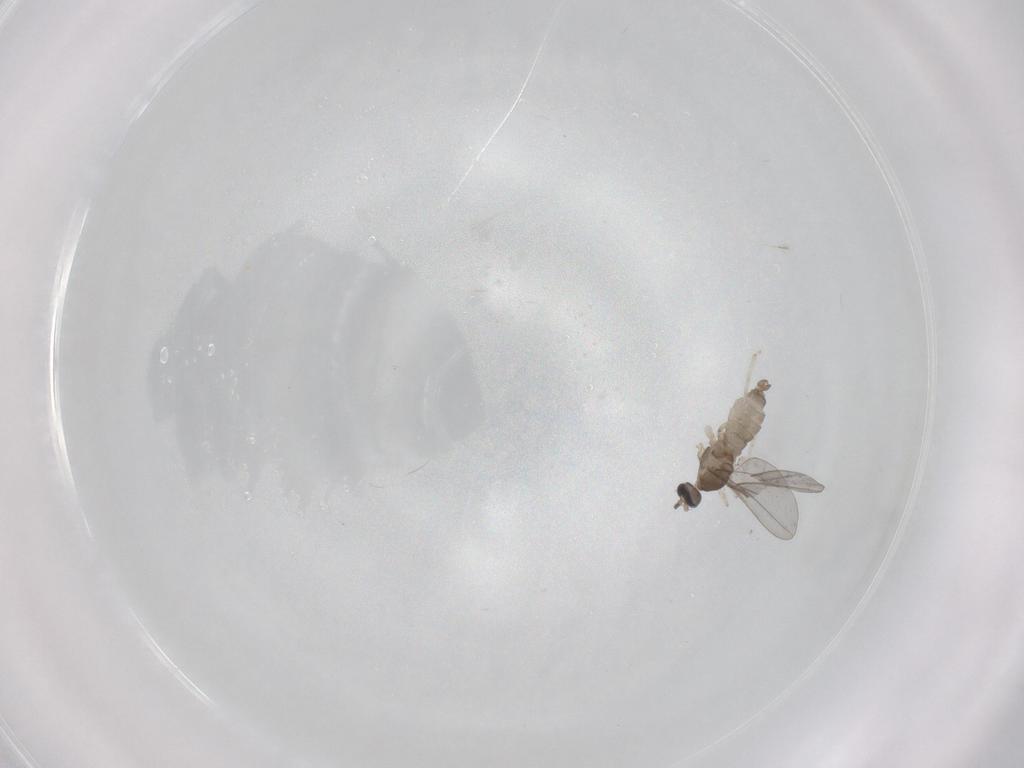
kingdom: Animalia
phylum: Arthropoda
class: Insecta
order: Diptera
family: Cecidomyiidae
